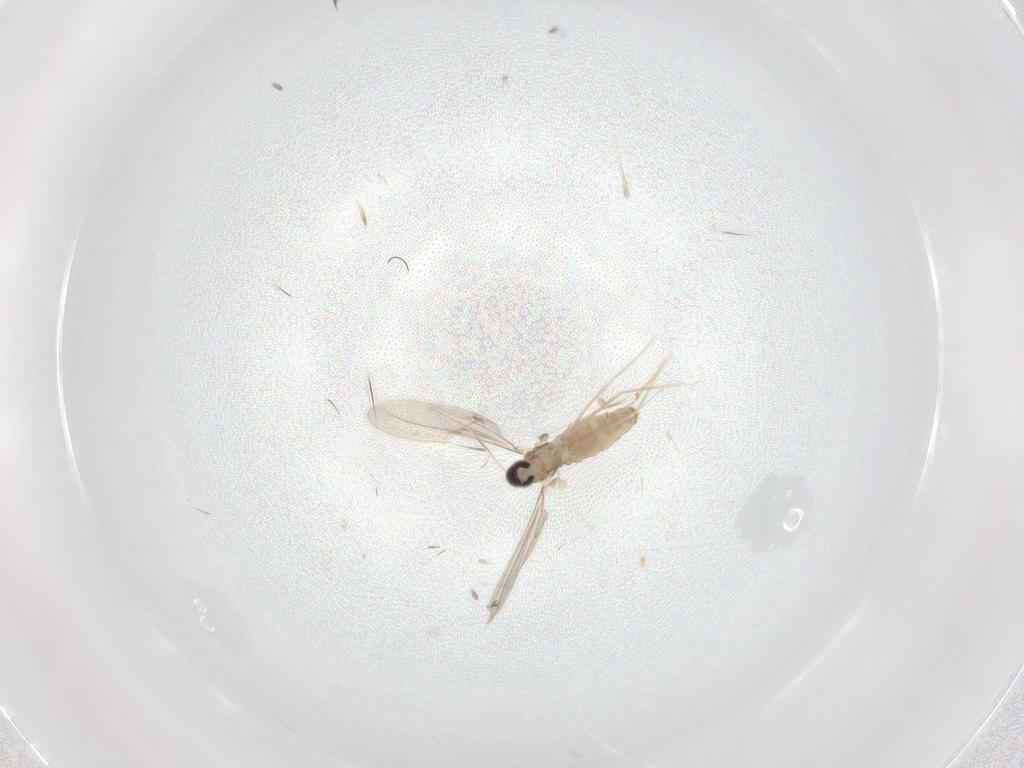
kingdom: Animalia
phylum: Arthropoda
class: Insecta
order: Diptera
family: Cecidomyiidae
